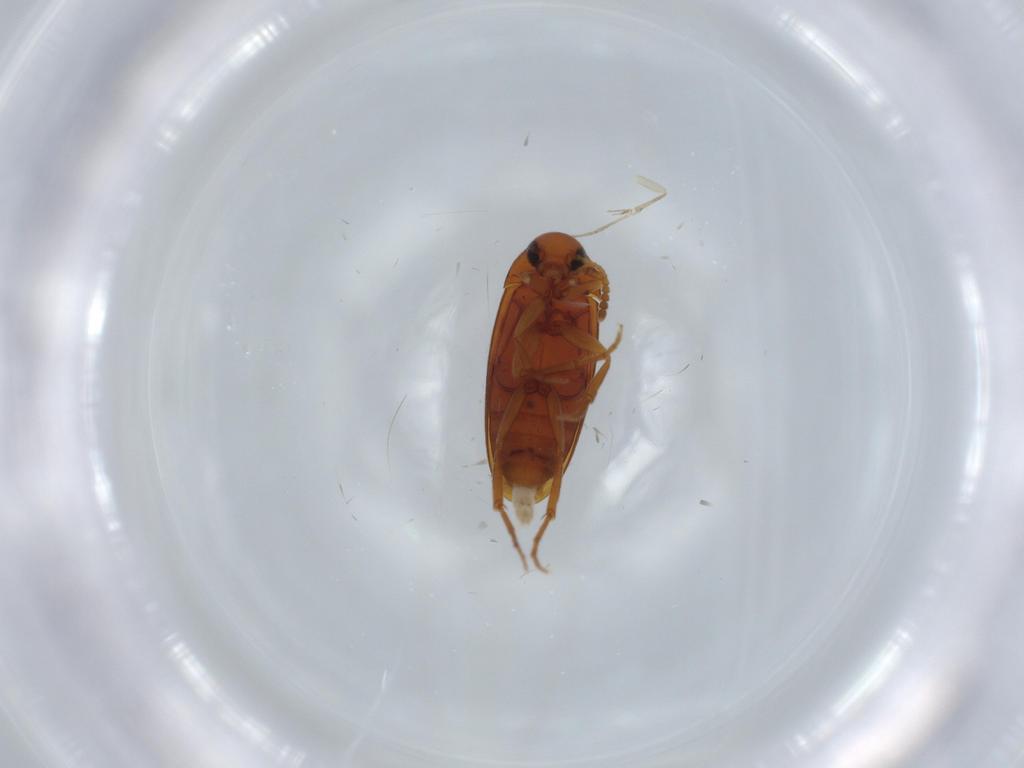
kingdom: Animalia
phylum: Arthropoda
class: Insecta
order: Coleoptera
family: Scraptiidae
